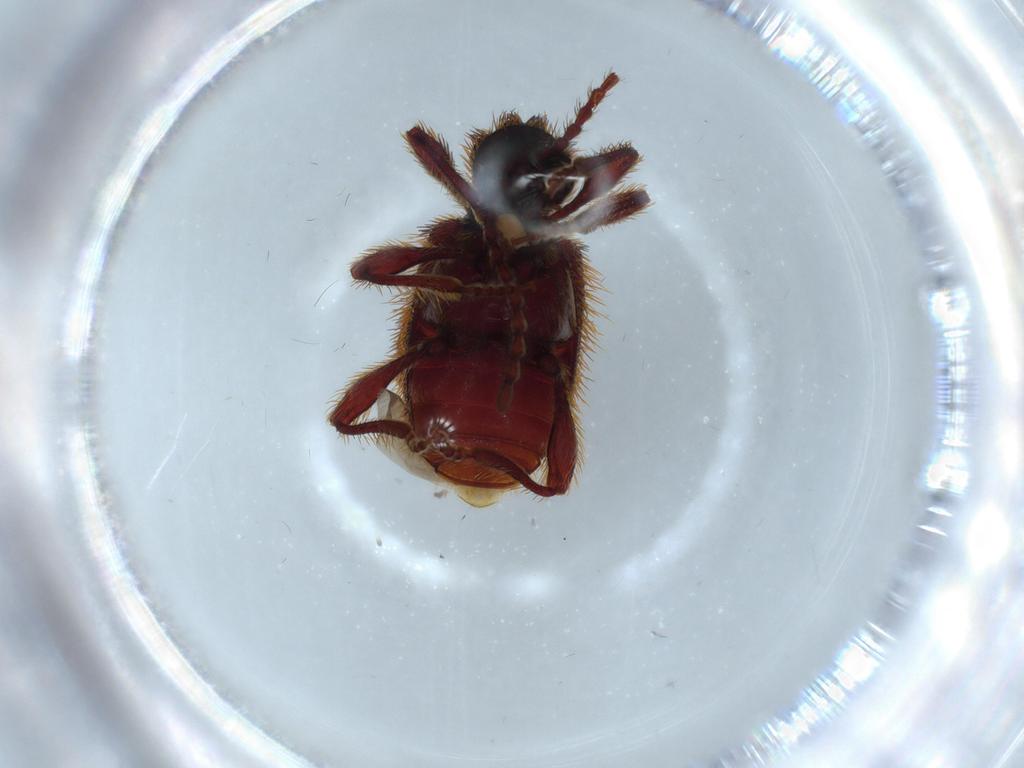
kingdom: Animalia
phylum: Arthropoda
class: Insecta
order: Coleoptera
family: Ptinidae
